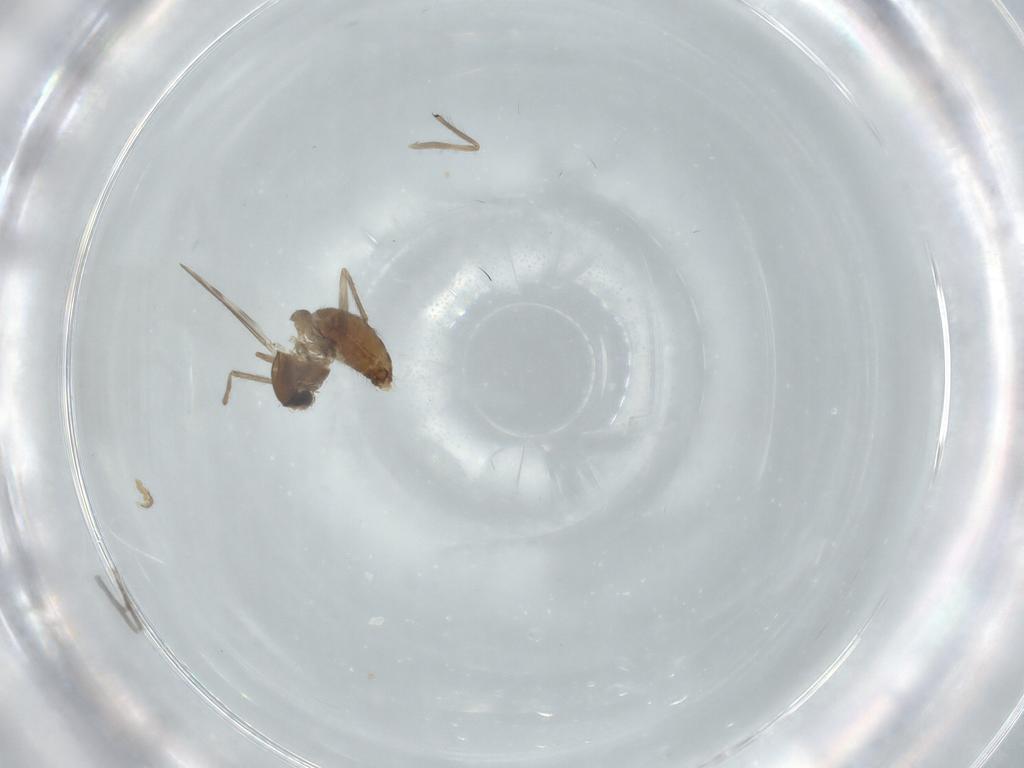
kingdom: Animalia
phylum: Arthropoda
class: Insecta
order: Diptera
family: Chironomidae
